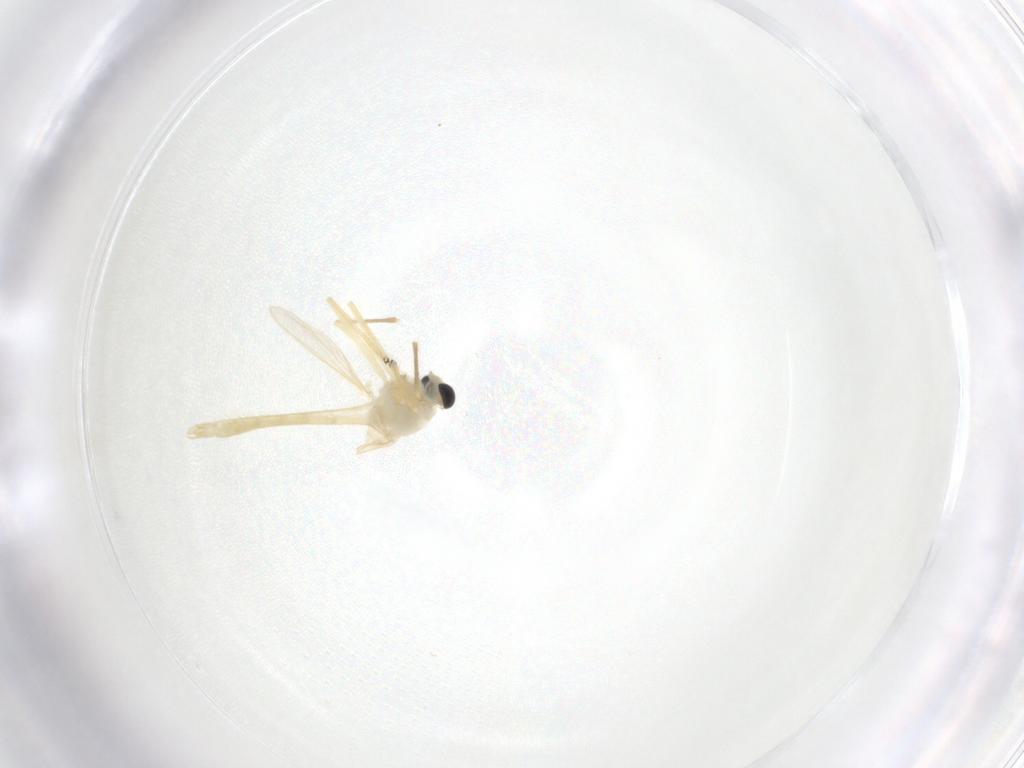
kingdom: Animalia
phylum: Arthropoda
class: Insecta
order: Diptera
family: Chironomidae
